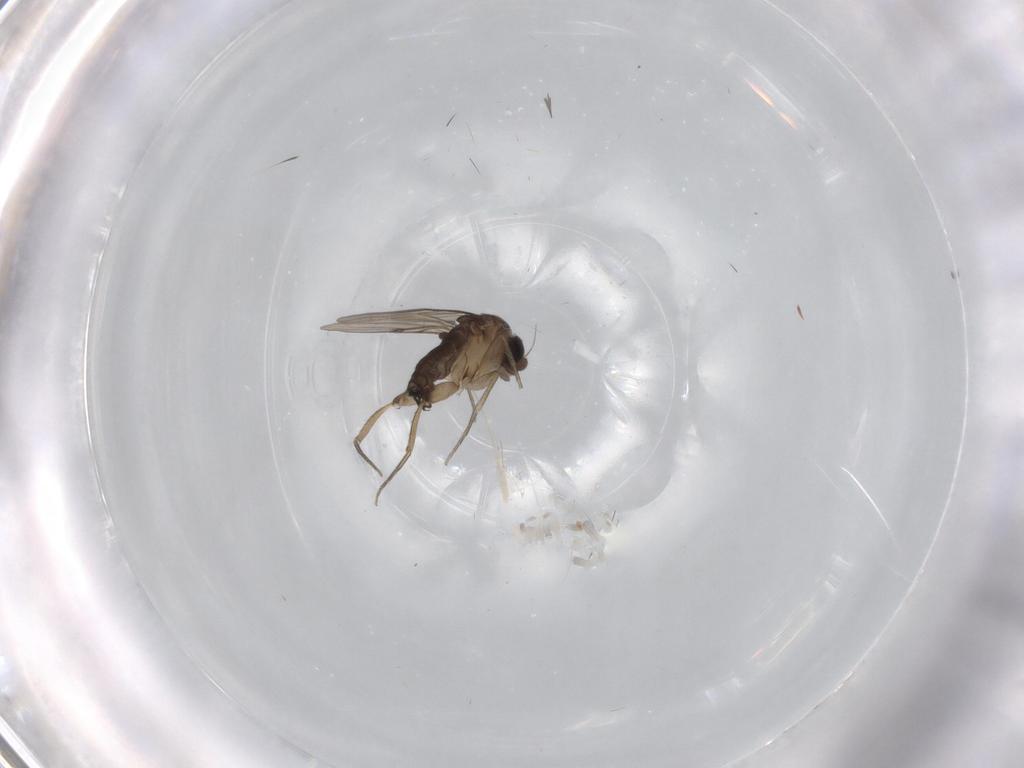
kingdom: Animalia
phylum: Arthropoda
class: Insecta
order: Diptera
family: Phoridae
